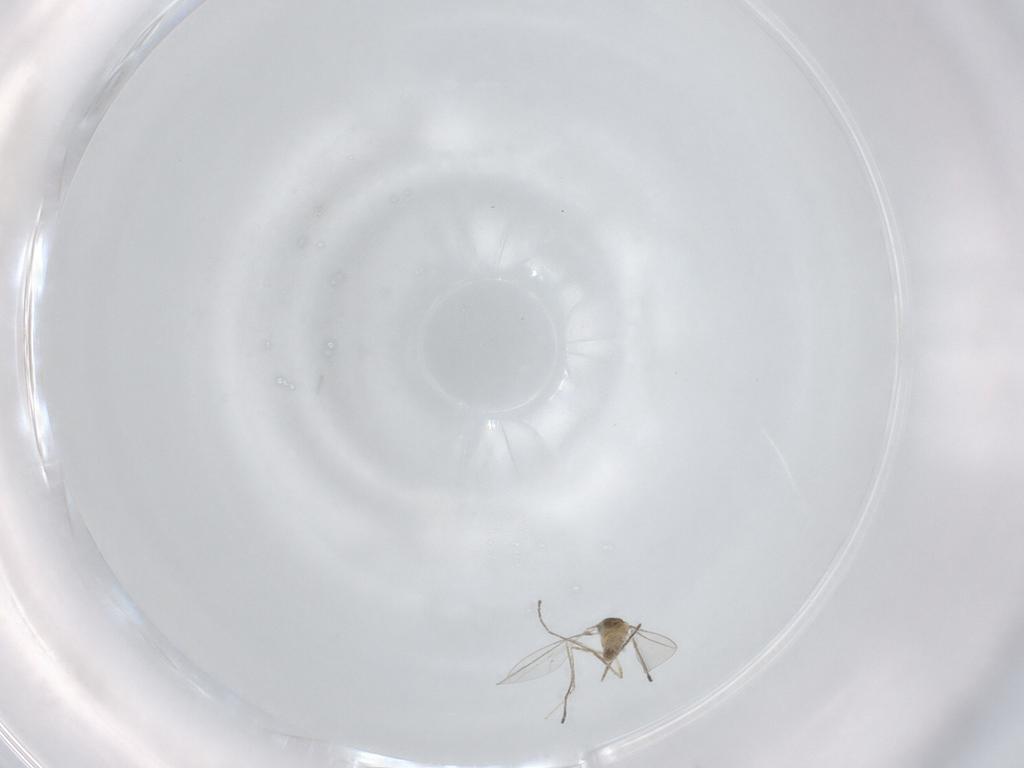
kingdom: Animalia
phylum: Arthropoda
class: Insecta
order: Diptera
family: Cecidomyiidae
